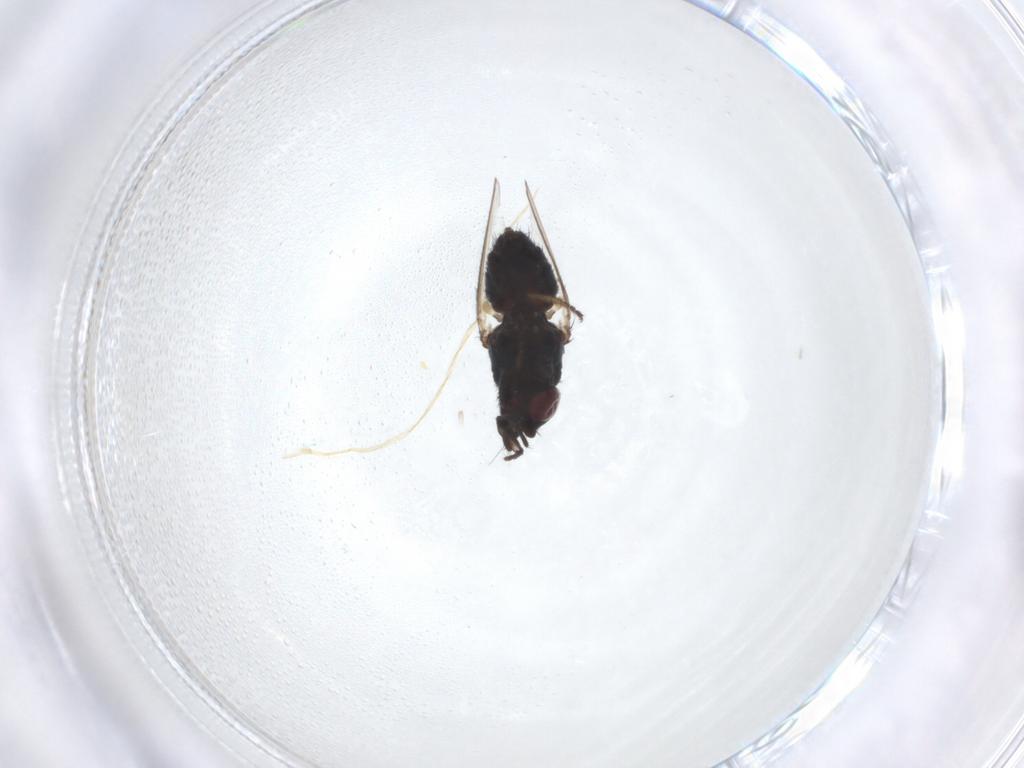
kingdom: Animalia
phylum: Arthropoda
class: Insecta
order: Diptera
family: Milichiidae
